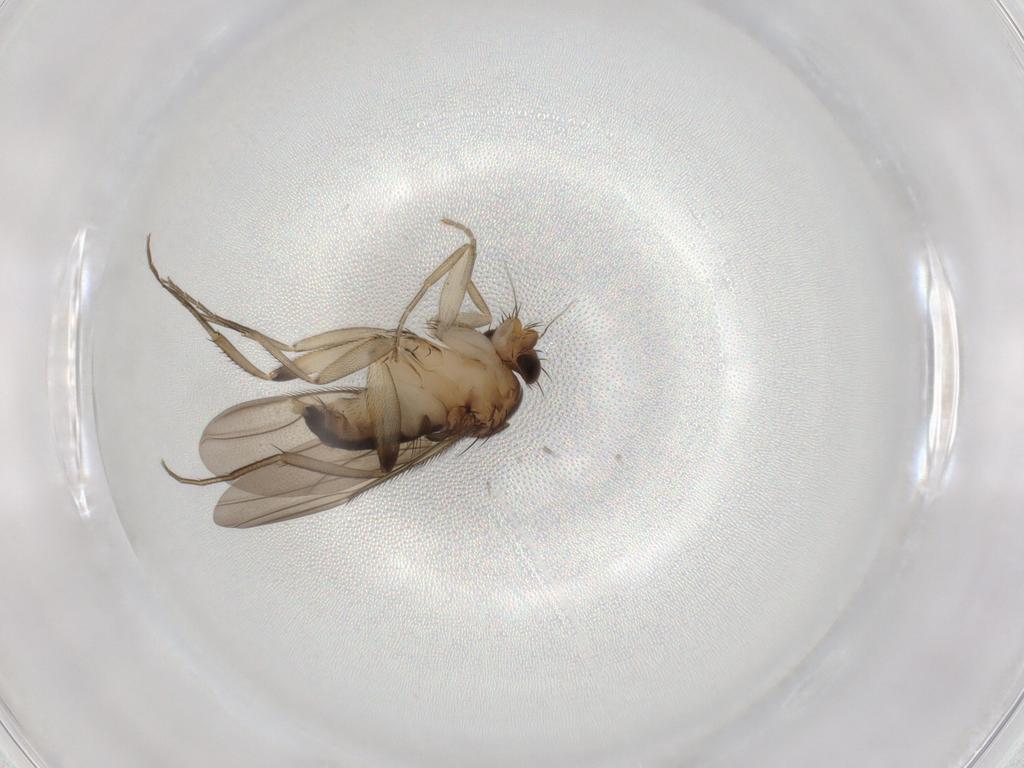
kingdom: Animalia
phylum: Arthropoda
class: Insecta
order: Diptera
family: Phoridae
